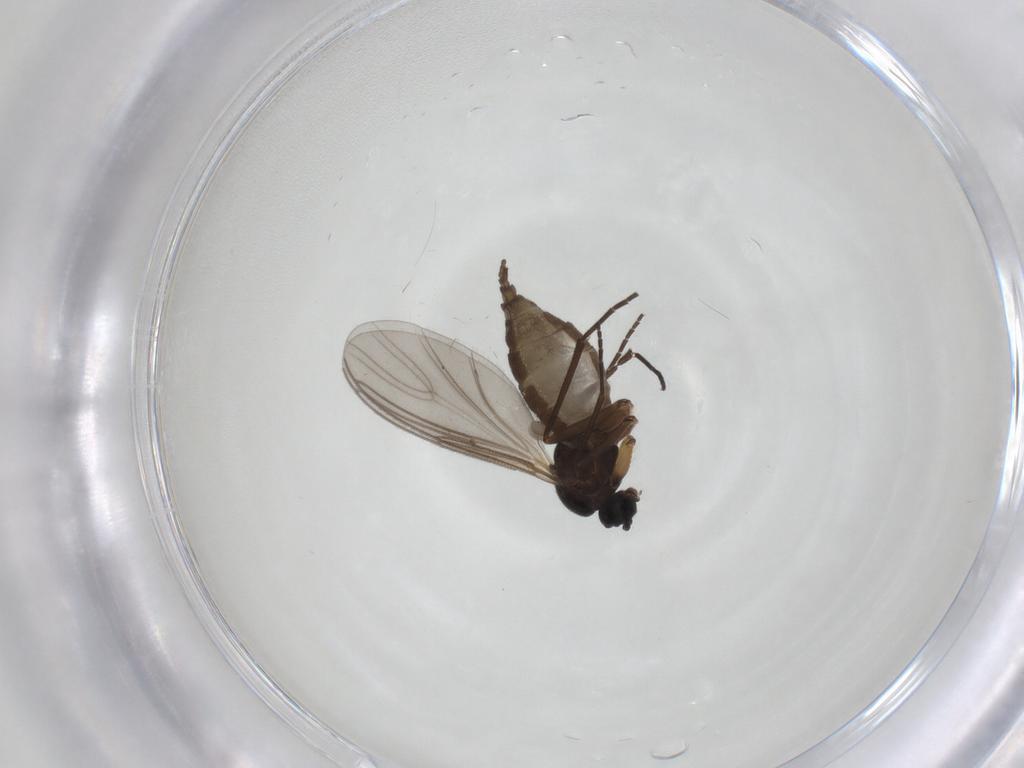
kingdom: Animalia
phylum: Arthropoda
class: Insecta
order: Diptera
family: Sciaridae
